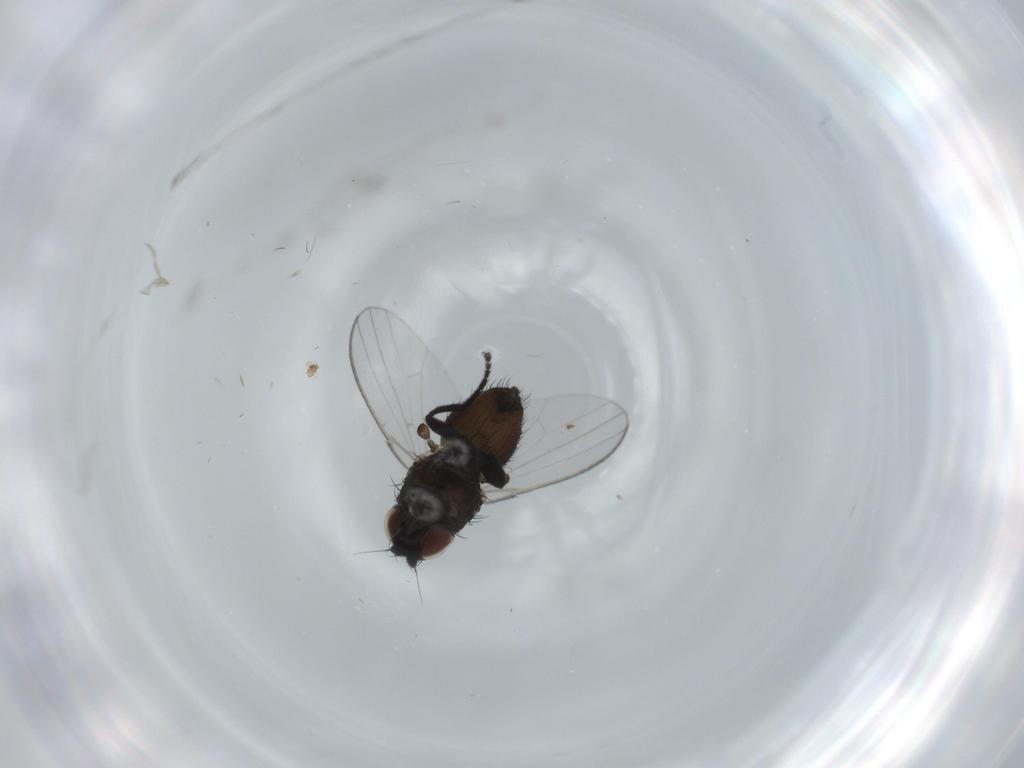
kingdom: Animalia
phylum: Arthropoda
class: Insecta
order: Diptera
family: Milichiidae
